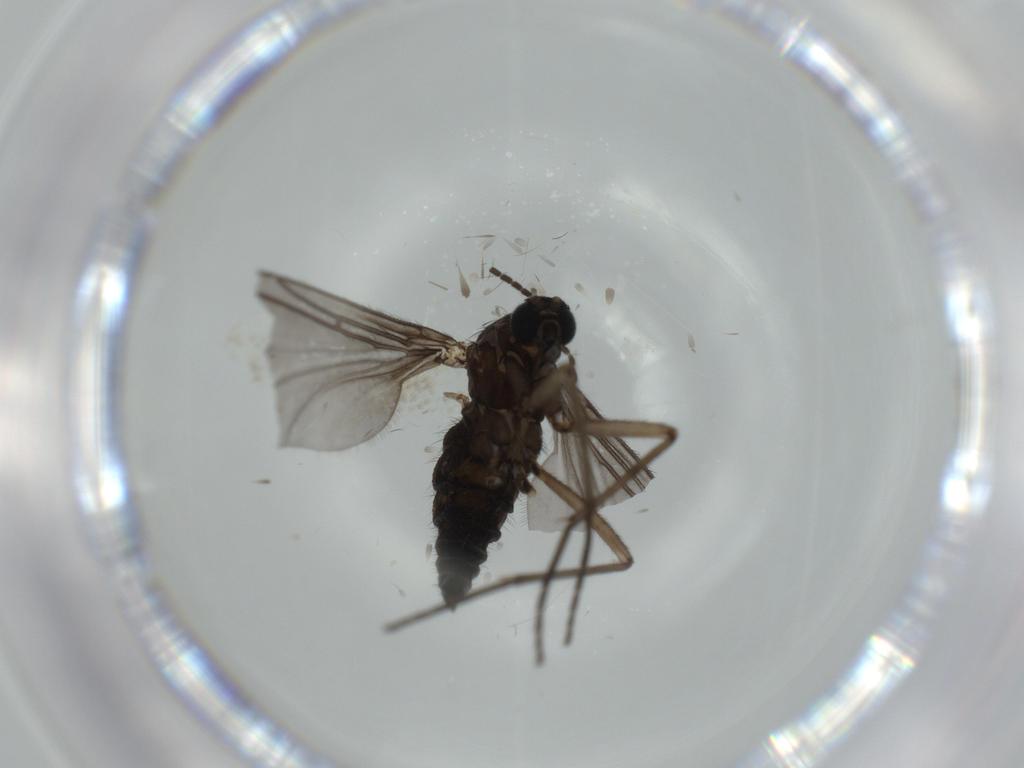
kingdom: Animalia
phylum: Arthropoda
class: Insecta
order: Diptera
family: Sciaridae
